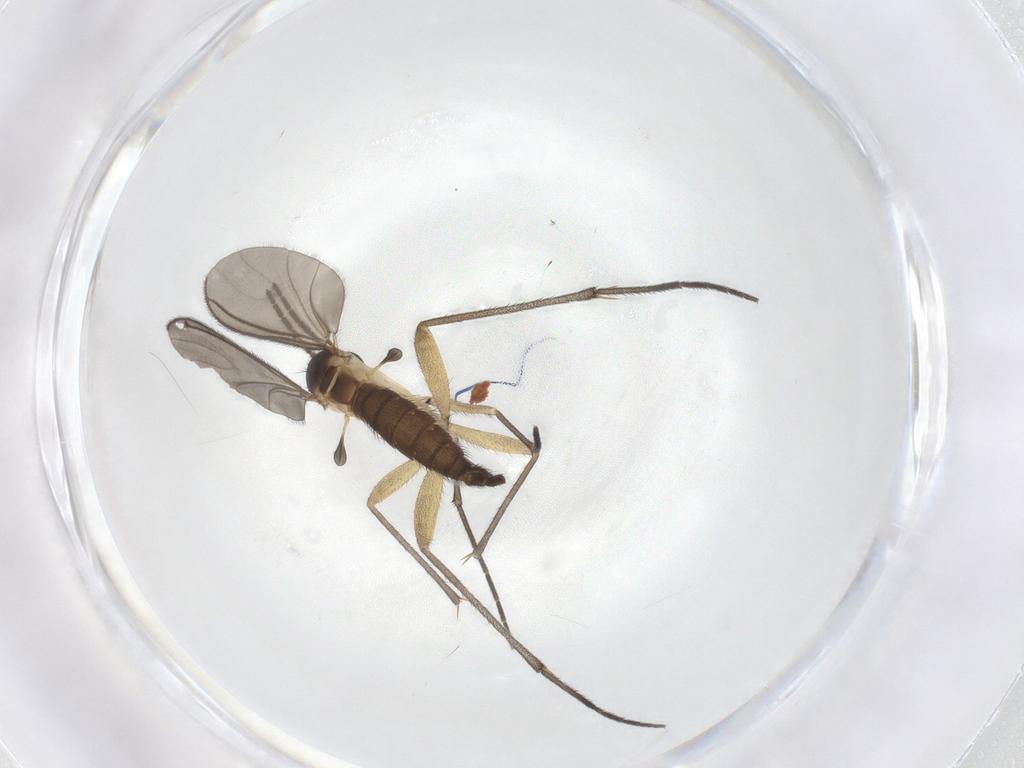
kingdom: Animalia
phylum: Arthropoda
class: Insecta
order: Diptera
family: Sciaridae
